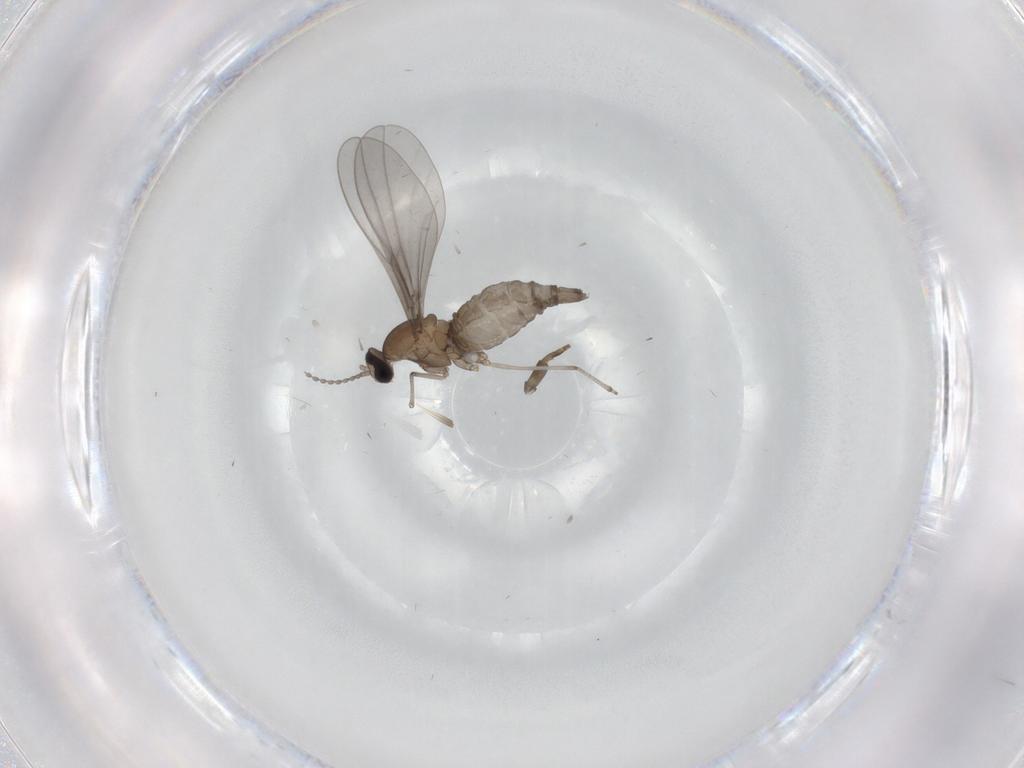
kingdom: Animalia
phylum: Arthropoda
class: Insecta
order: Diptera
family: Cecidomyiidae
